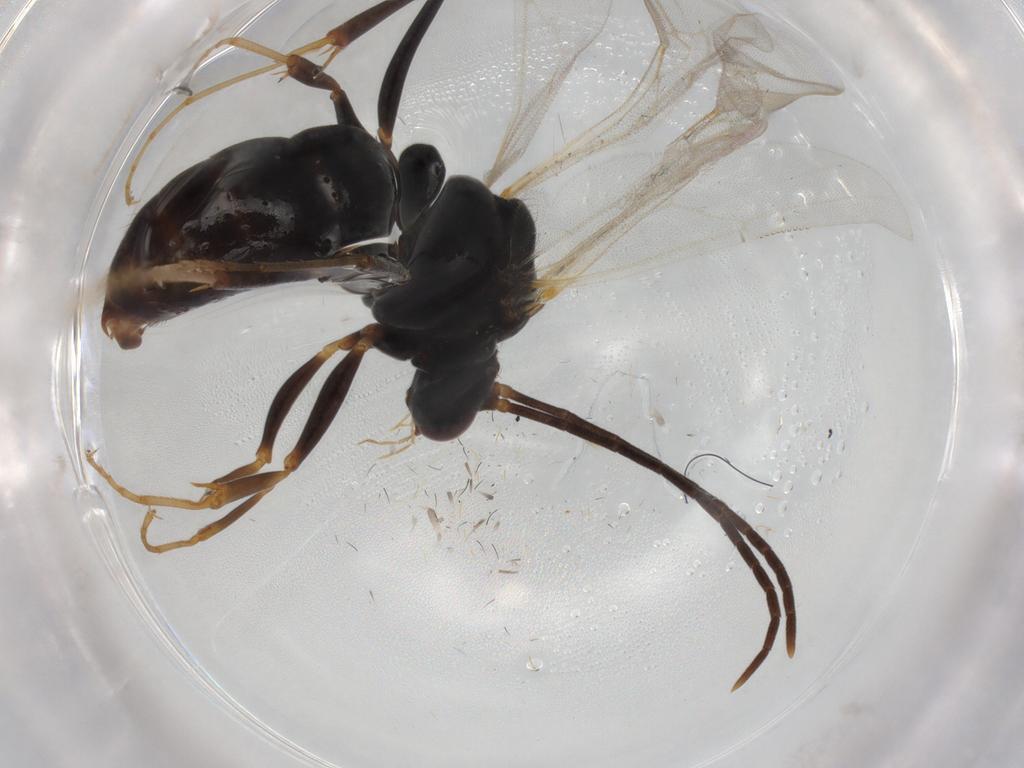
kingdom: Animalia
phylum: Arthropoda
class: Insecta
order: Hymenoptera
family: Formicidae
